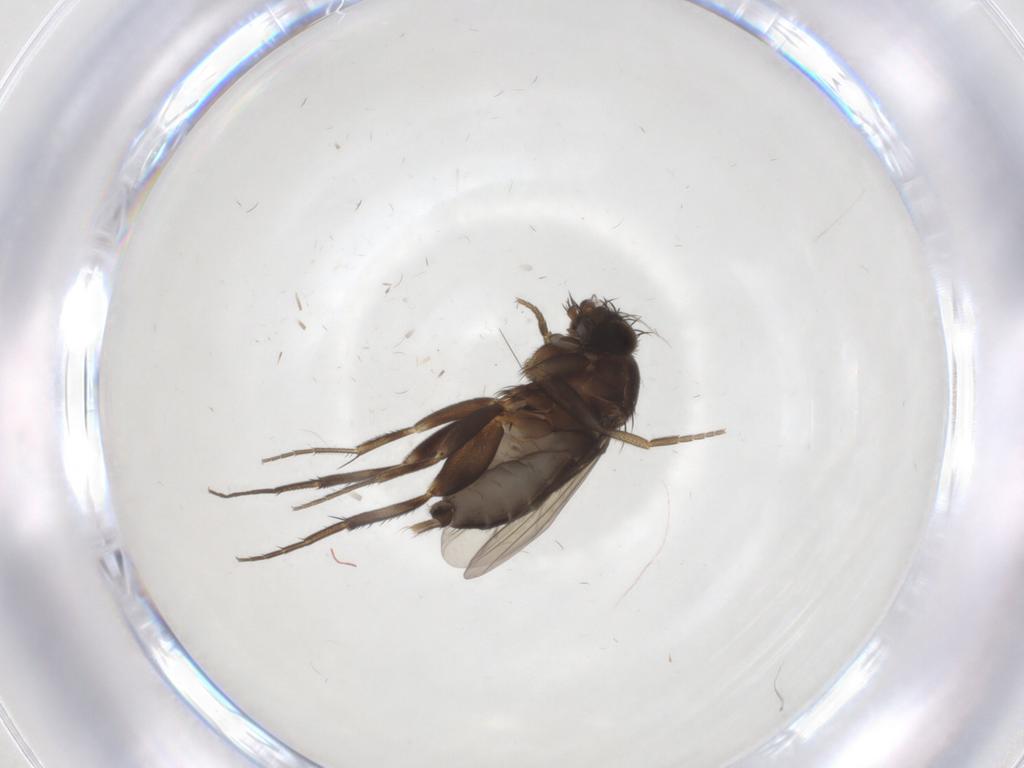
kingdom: Animalia
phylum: Arthropoda
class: Insecta
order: Diptera
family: Phoridae
